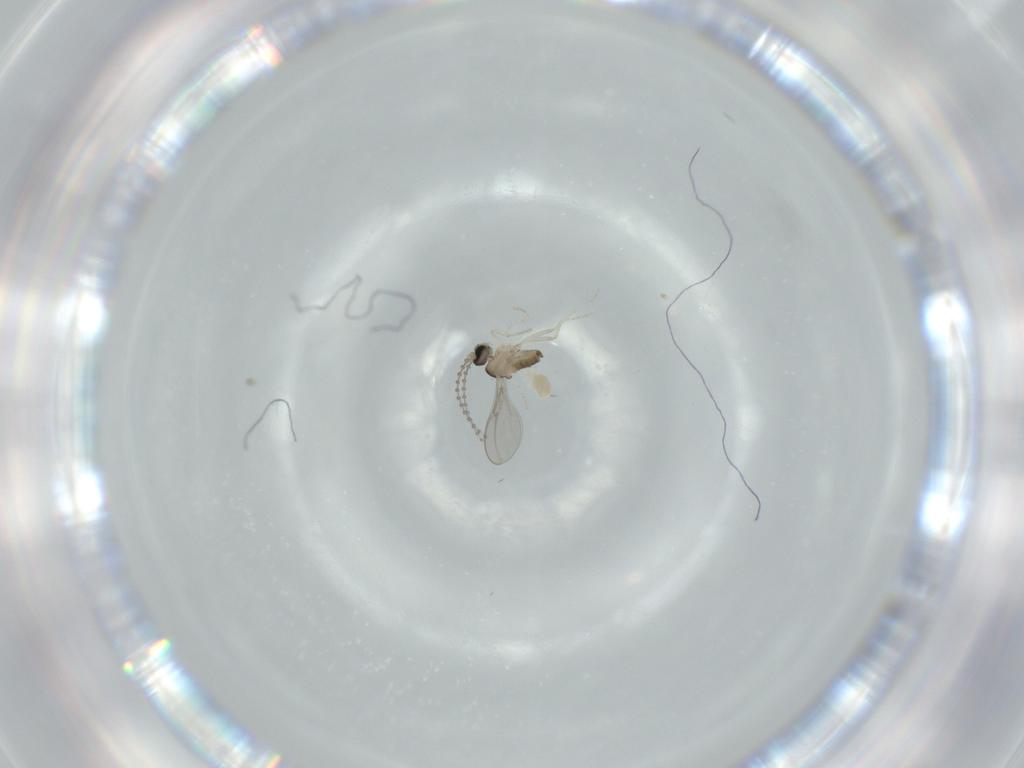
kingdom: Animalia
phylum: Arthropoda
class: Insecta
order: Diptera
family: Cecidomyiidae
